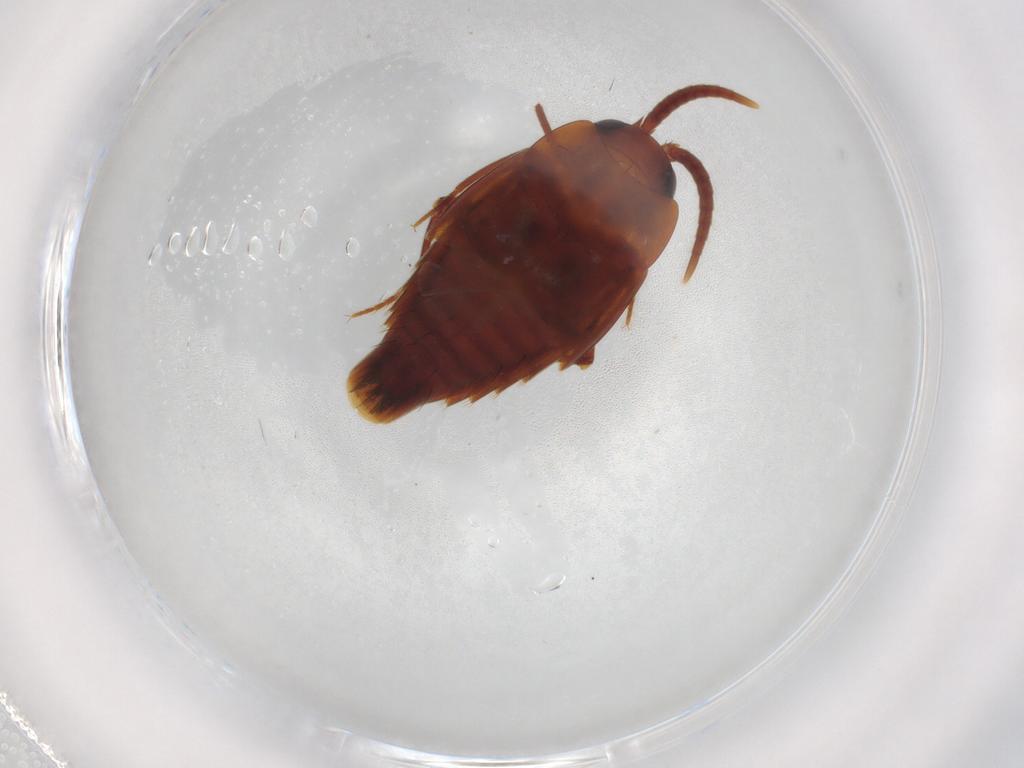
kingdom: Animalia
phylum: Arthropoda
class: Insecta
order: Coleoptera
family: Staphylinidae
